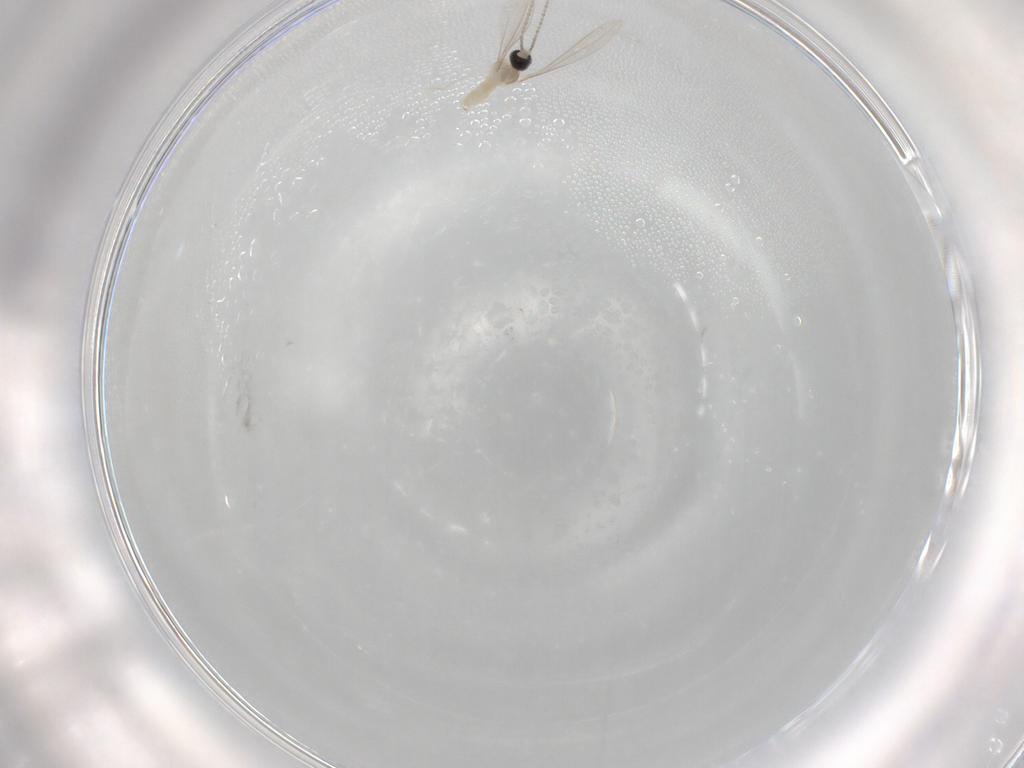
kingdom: Animalia
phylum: Arthropoda
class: Insecta
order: Diptera
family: Cecidomyiidae
